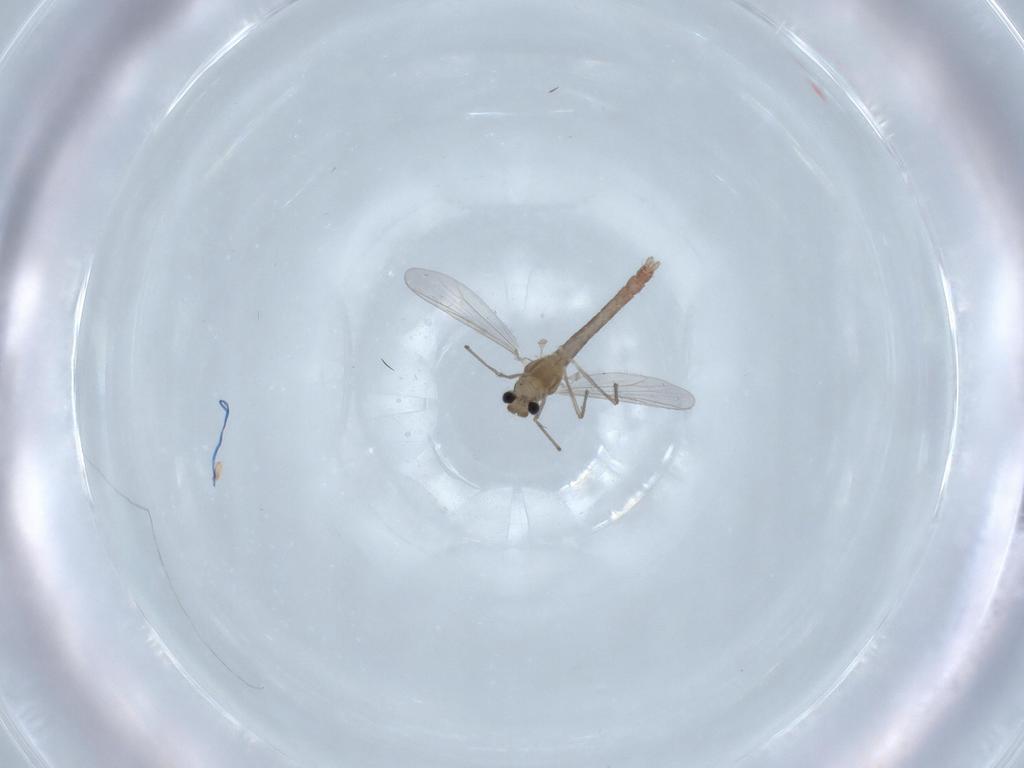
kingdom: Animalia
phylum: Arthropoda
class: Insecta
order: Diptera
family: Chironomidae
